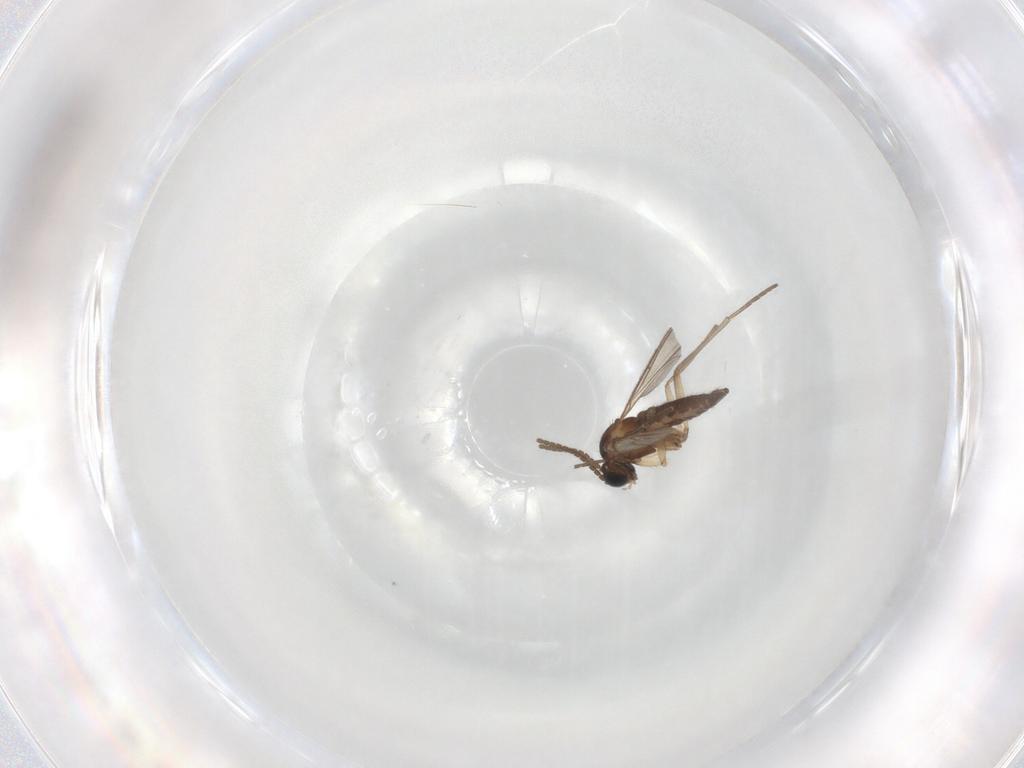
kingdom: Animalia
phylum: Arthropoda
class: Insecta
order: Diptera
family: Sciaridae
